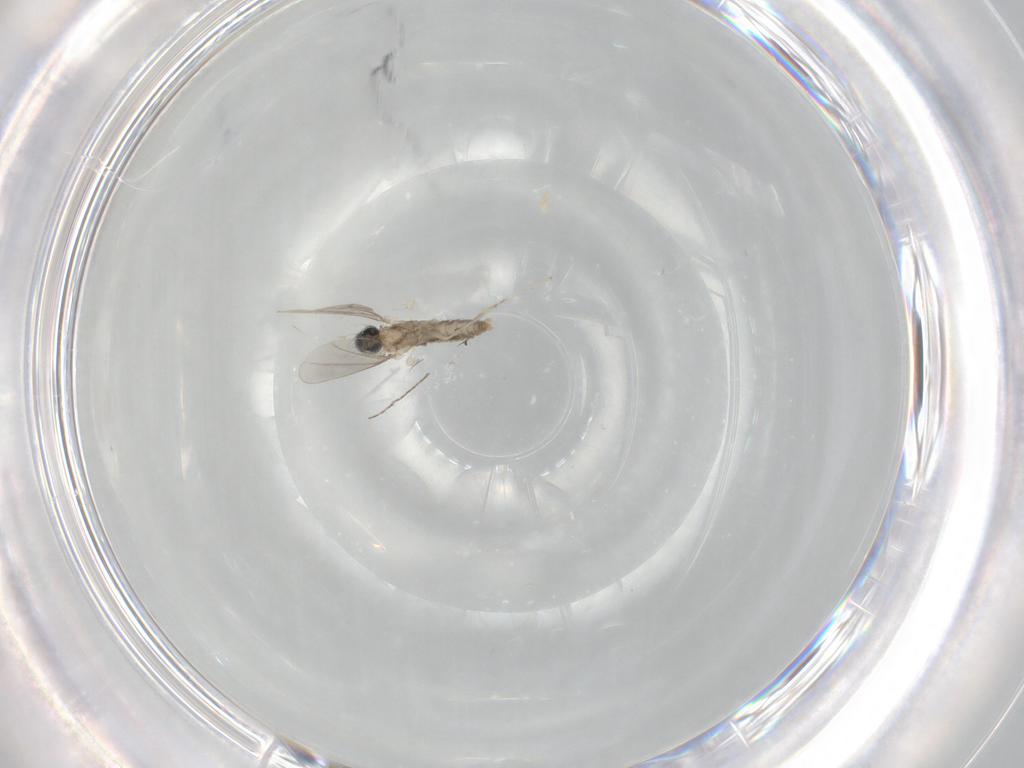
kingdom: Animalia
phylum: Arthropoda
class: Insecta
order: Diptera
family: Cecidomyiidae
